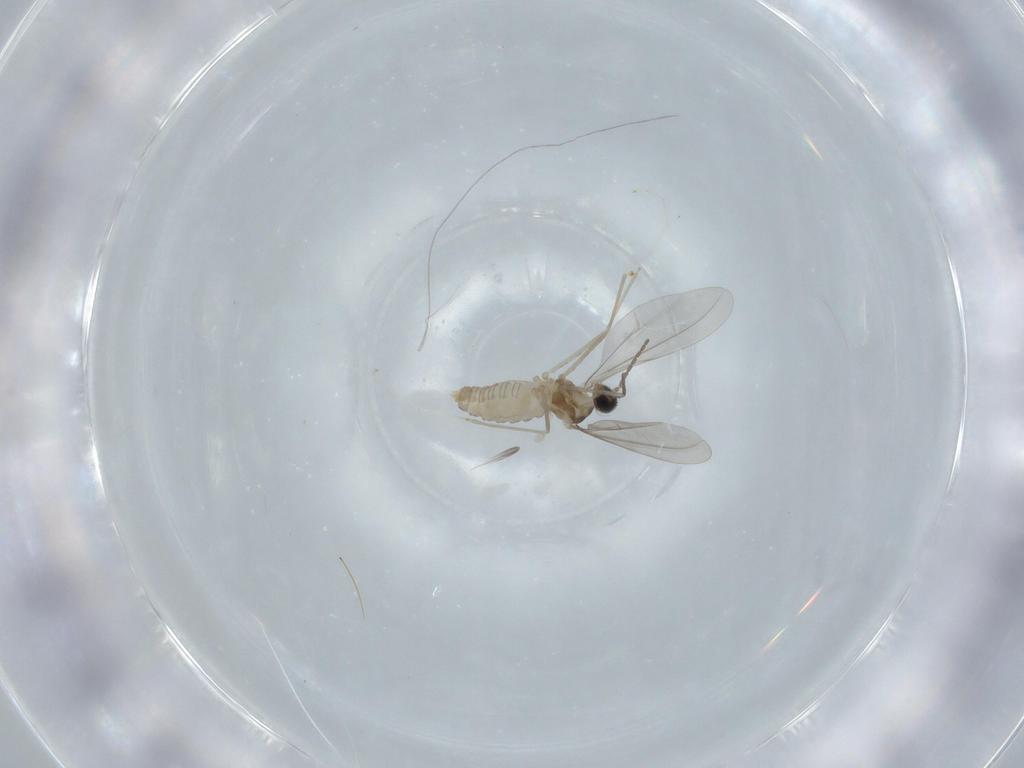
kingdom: Animalia
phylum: Arthropoda
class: Insecta
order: Diptera
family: Cecidomyiidae
